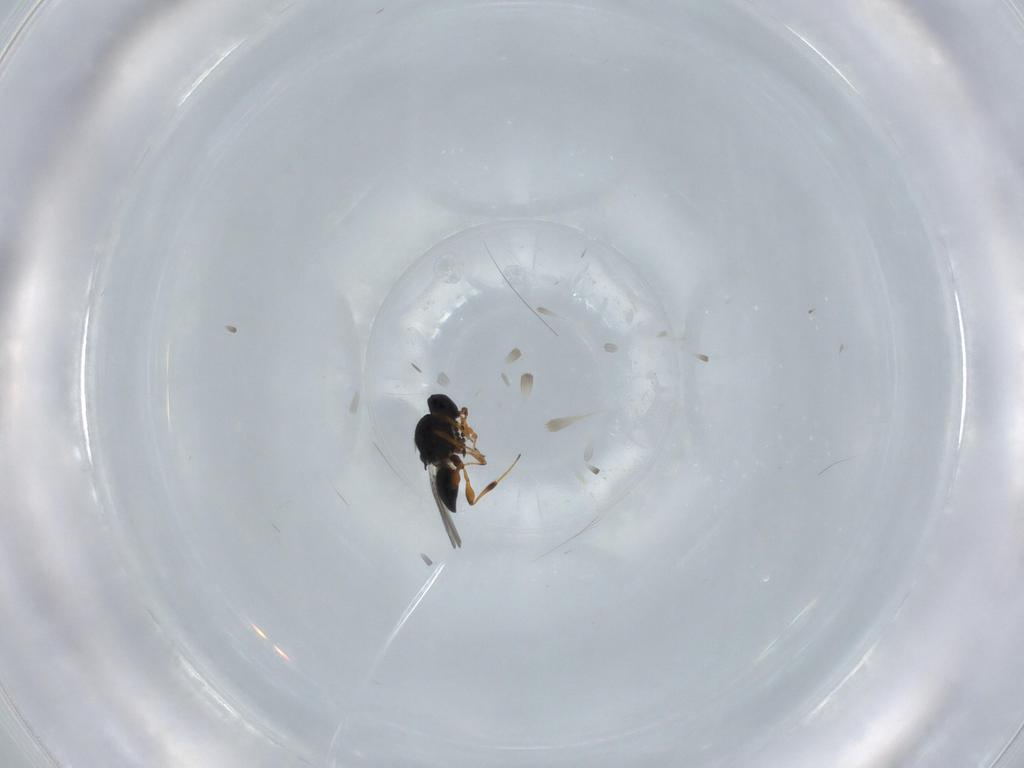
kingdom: Animalia
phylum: Arthropoda
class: Insecta
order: Hymenoptera
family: Platygastridae
